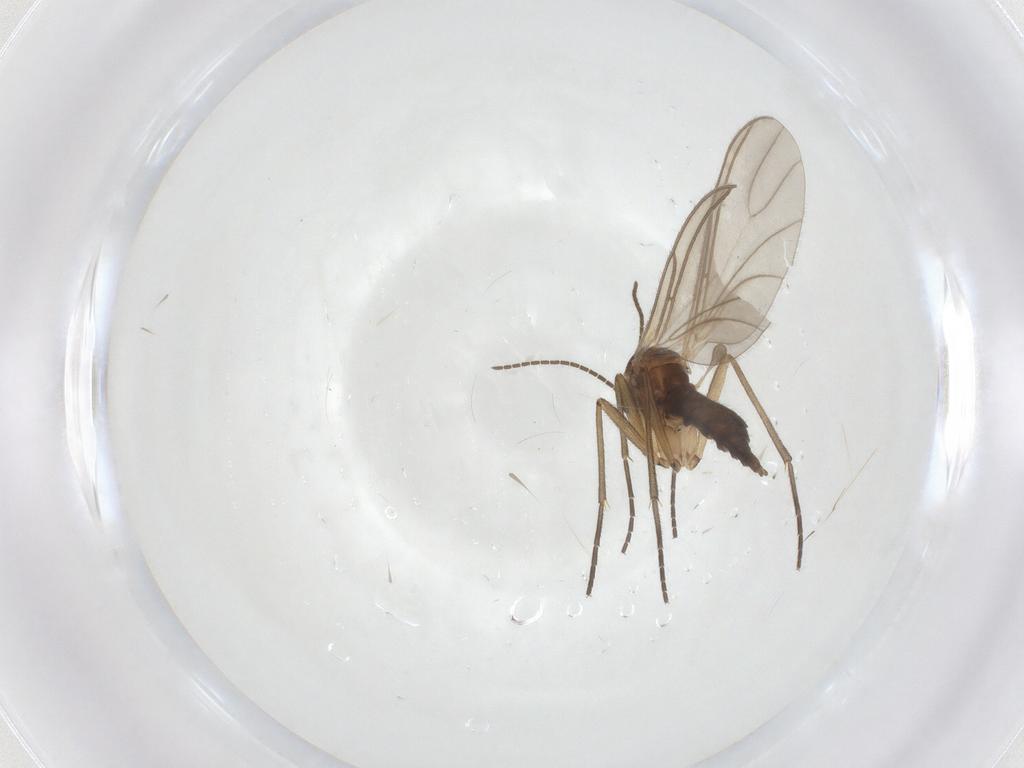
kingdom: Animalia
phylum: Arthropoda
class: Insecta
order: Diptera
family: Sciaridae
